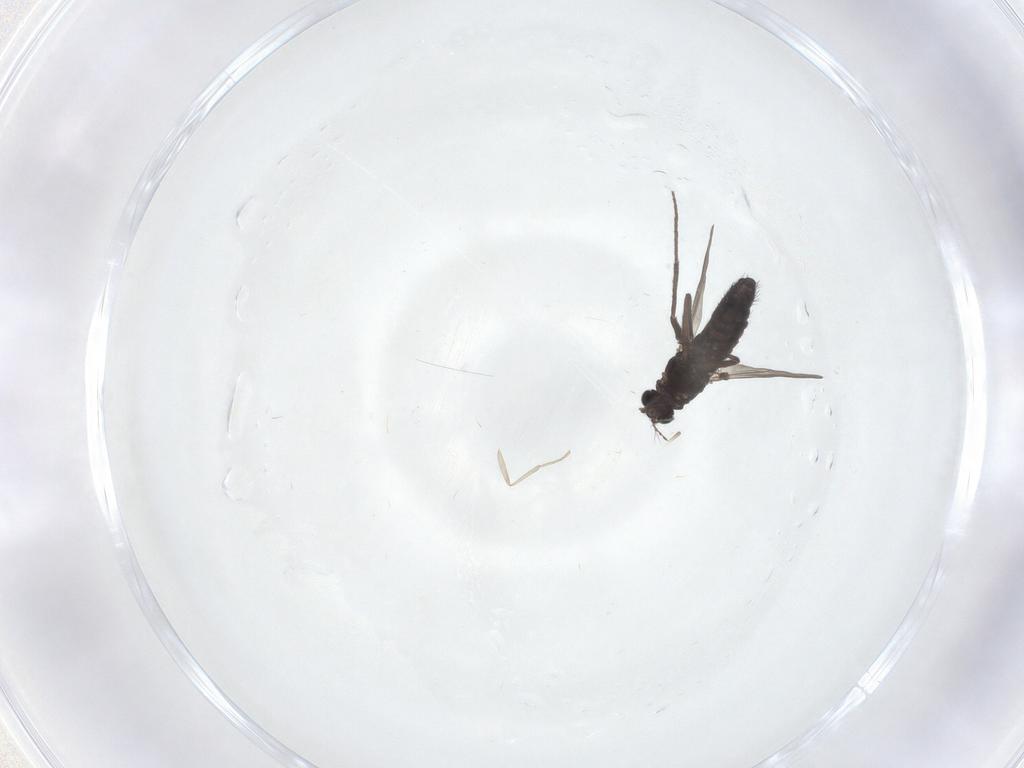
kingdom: Animalia
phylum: Arthropoda
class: Insecta
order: Diptera
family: Chironomidae
